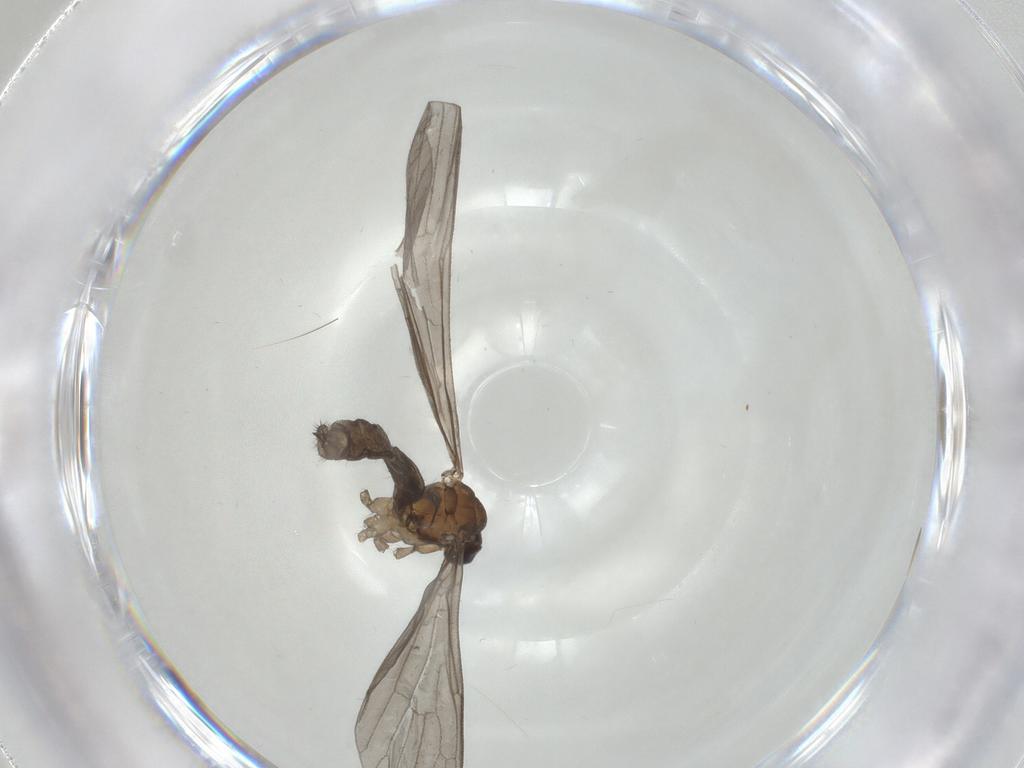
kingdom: Animalia
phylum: Arthropoda
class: Insecta
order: Diptera
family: Limoniidae
